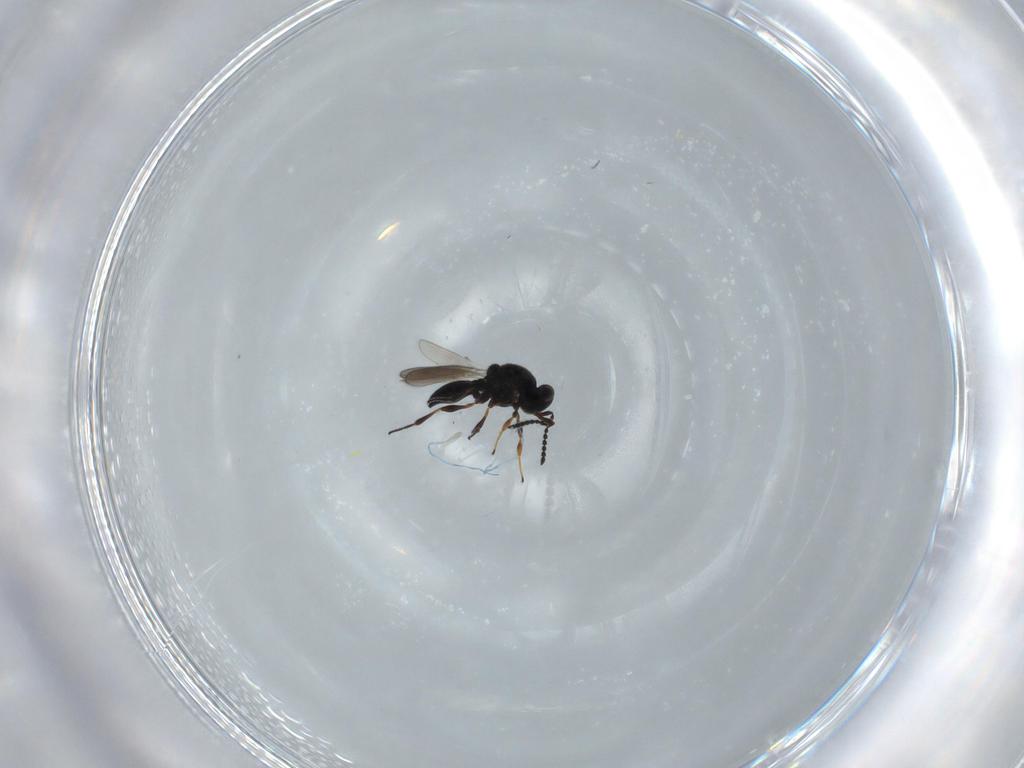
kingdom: Animalia
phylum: Arthropoda
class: Insecta
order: Hymenoptera
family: Platygastridae
